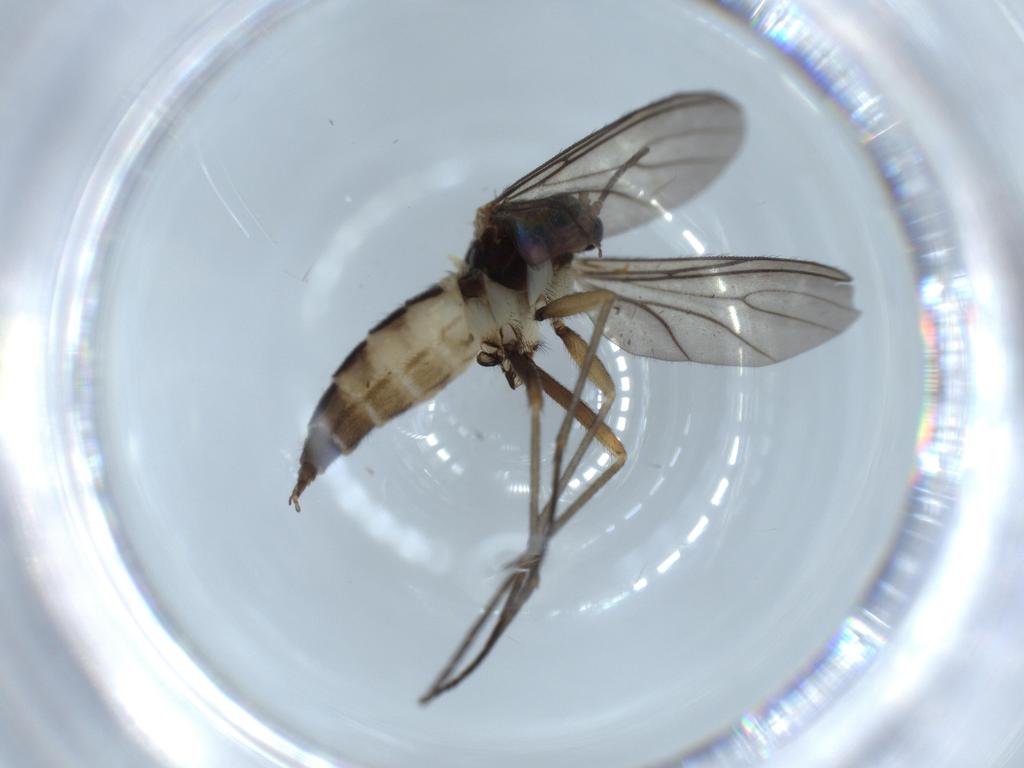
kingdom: Animalia
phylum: Arthropoda
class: Insecta
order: Diptera
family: Sciaridae
